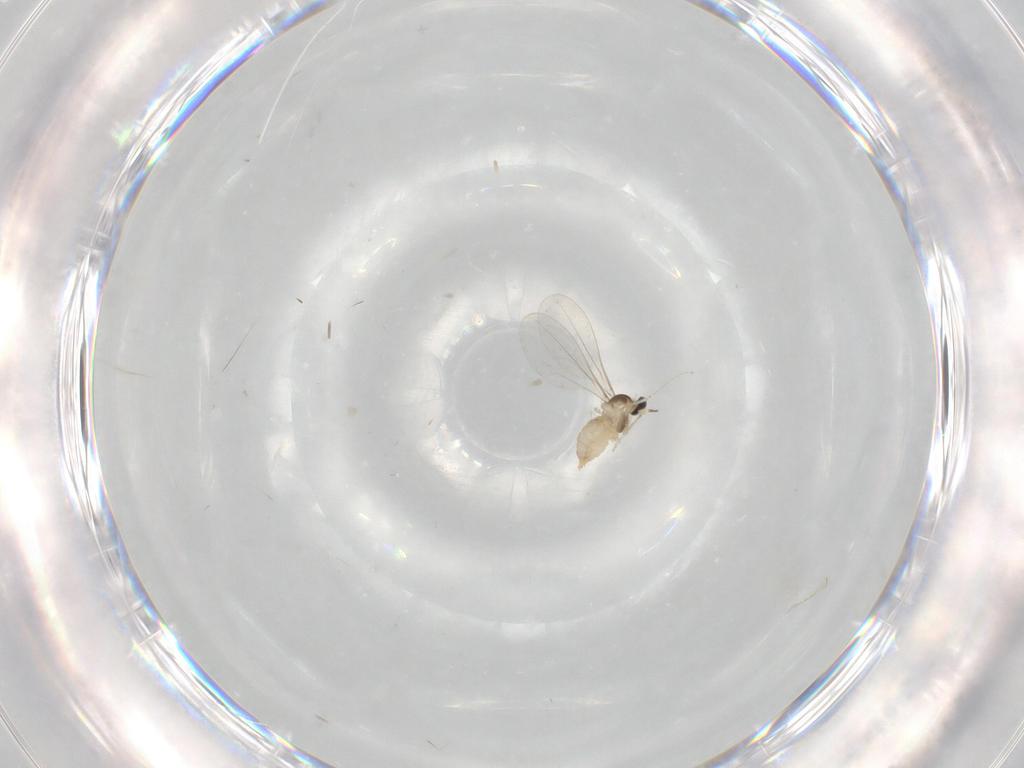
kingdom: Animalia
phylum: Arthropoda
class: Insecta
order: Diptera
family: Cecidomyiidae
